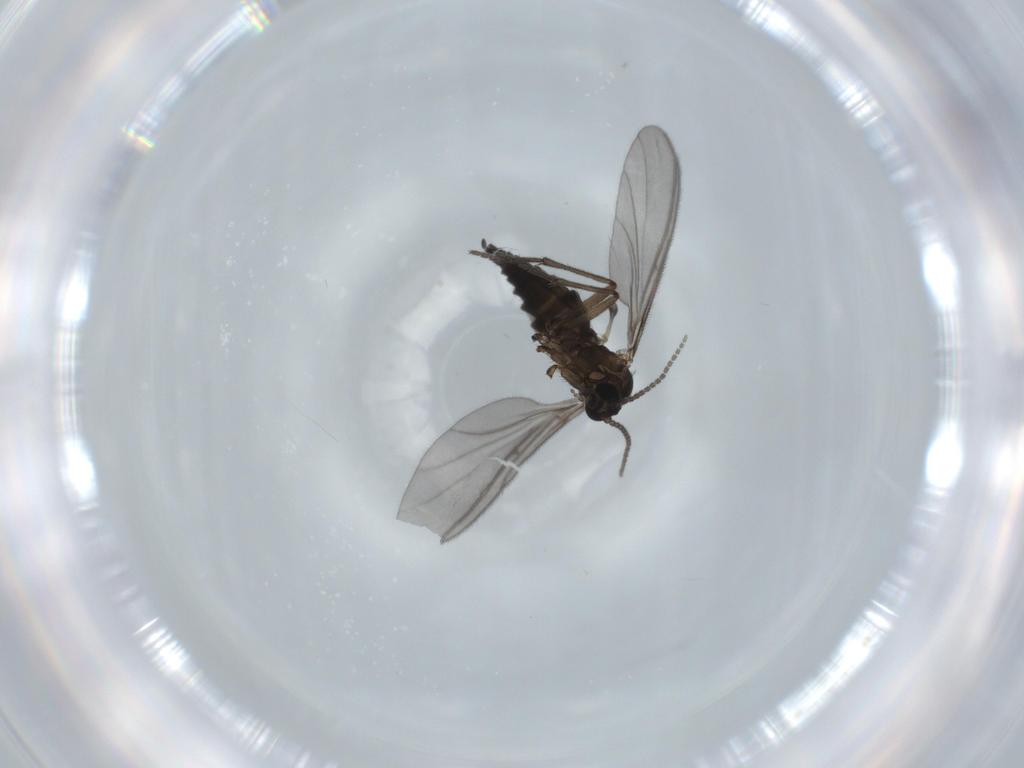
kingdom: Animalia
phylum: Arthropoda
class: Insecta
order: Diptera
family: Sciaridae
